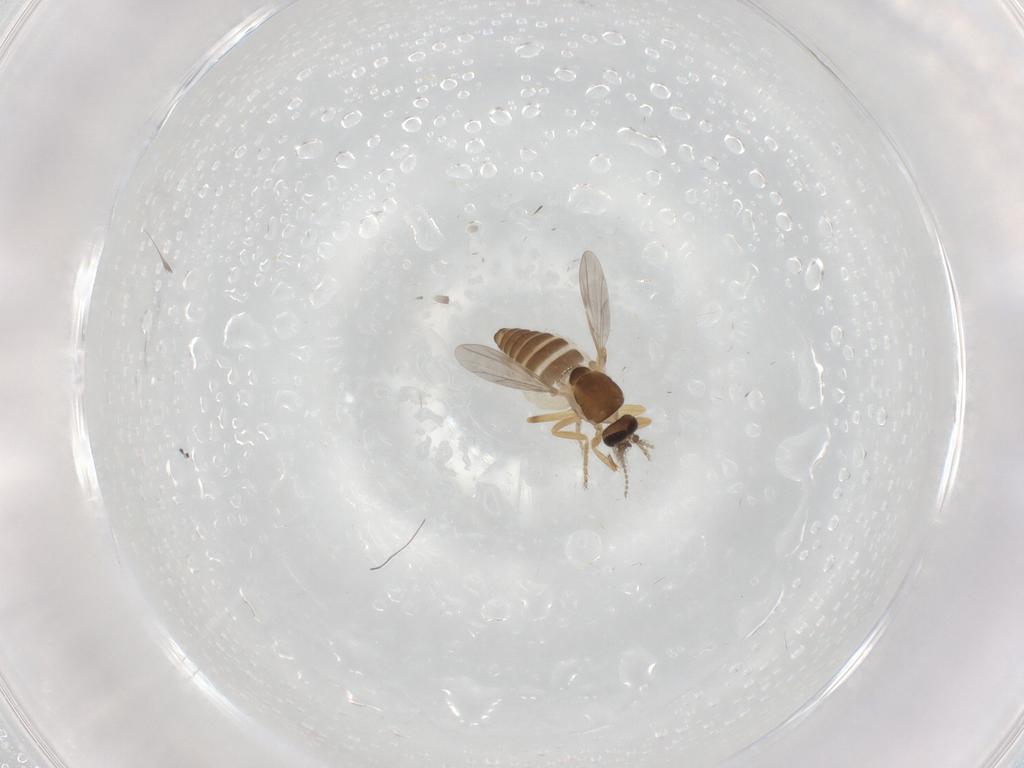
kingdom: Animalia
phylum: Arthropoda
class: Insecta
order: Diptera
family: Ceratopogonidae
